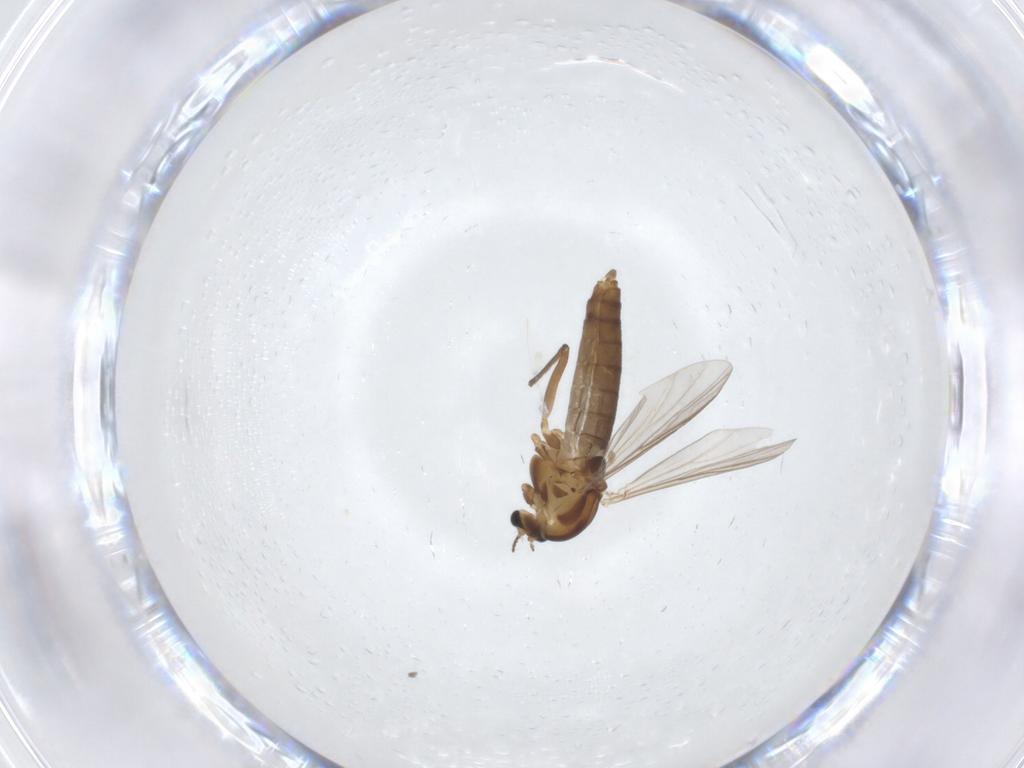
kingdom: Animalia
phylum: Arthropoda
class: Insecta
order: Diptera
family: Chironomidae
